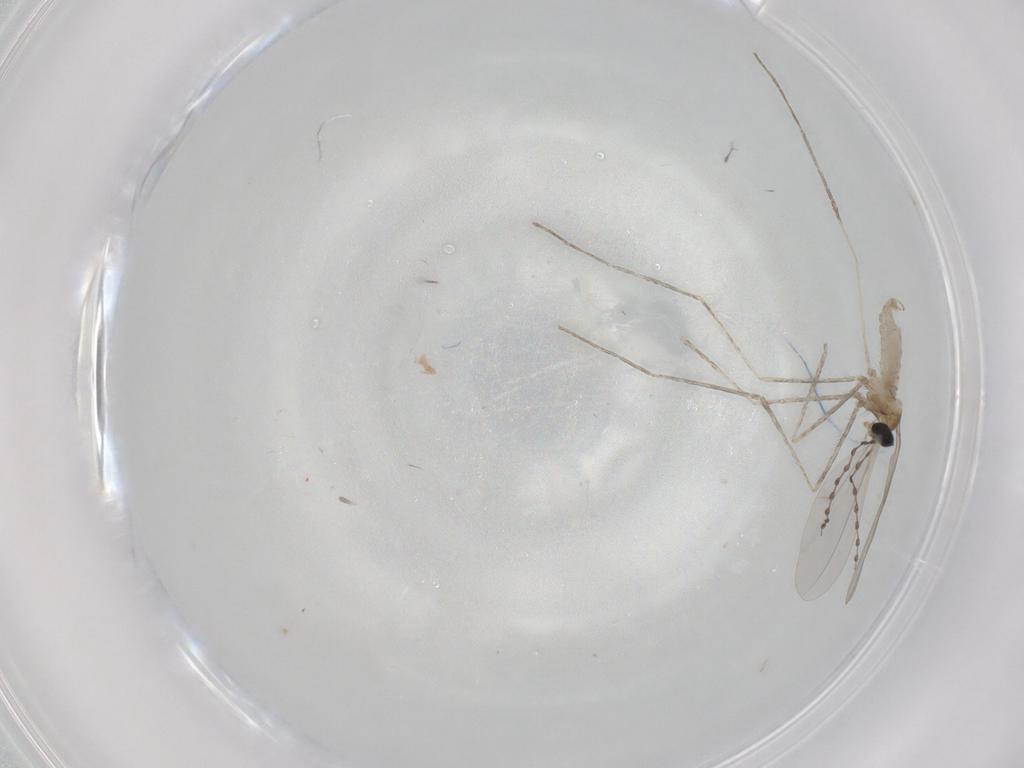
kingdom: Animalia
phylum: Arthropoda
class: Insecta
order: Diptera
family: Cecidomyiidae
